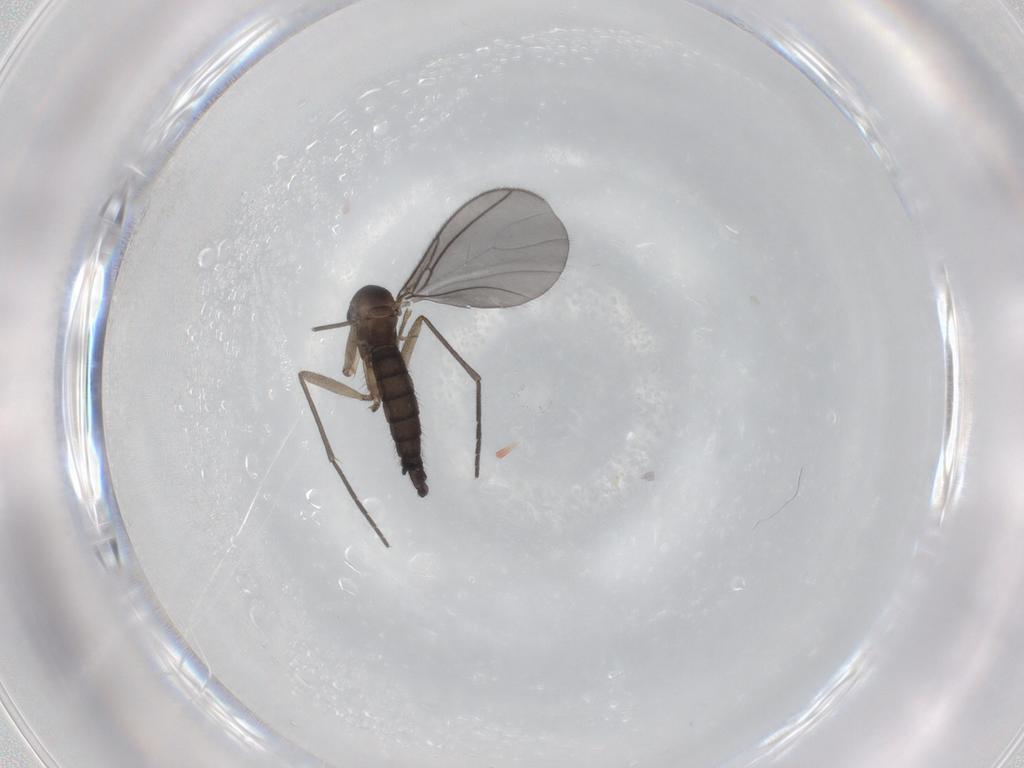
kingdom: Animalia
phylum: Arthropoda
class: Insecta
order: Diptera
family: Sciaridae
